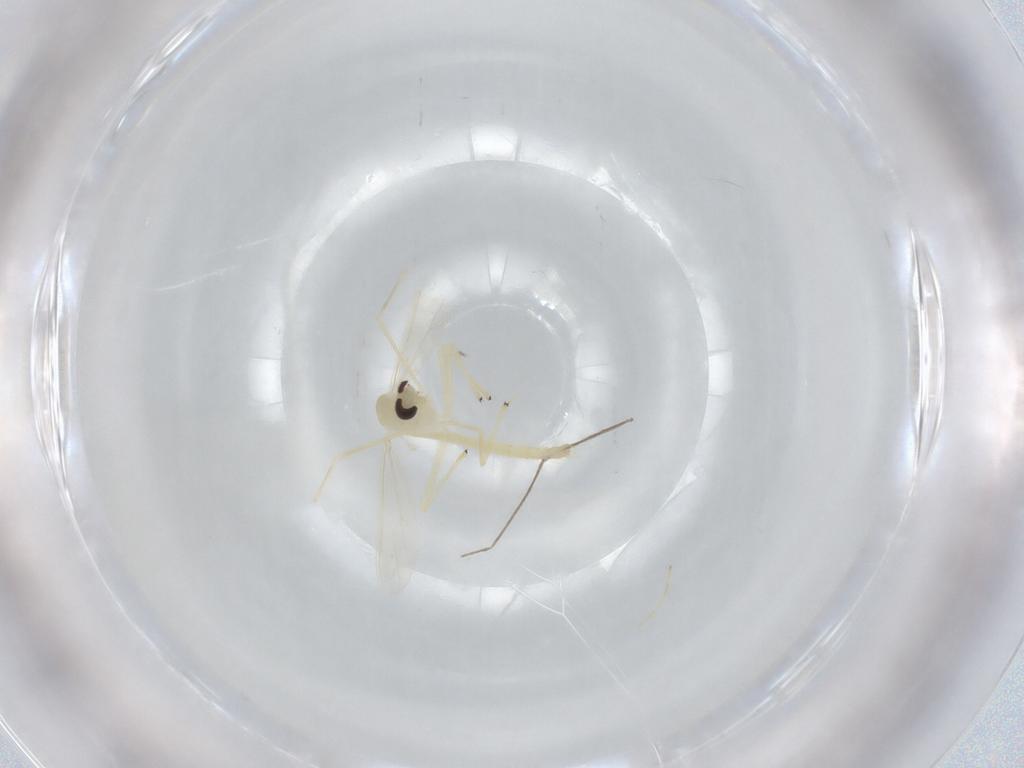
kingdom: Animalia
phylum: Arthropoda
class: Insecta
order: Diptera
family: Chironomidae
